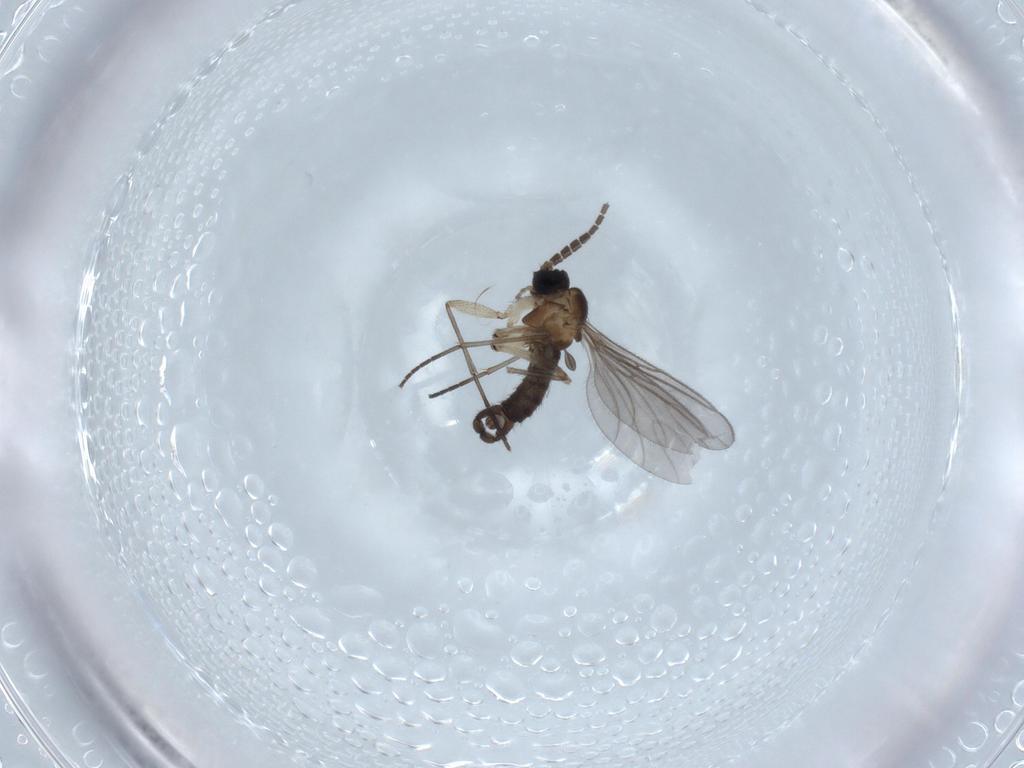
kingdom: Animalia
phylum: Arthropoda
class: Insecta
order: Diptera
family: Sciaridae
